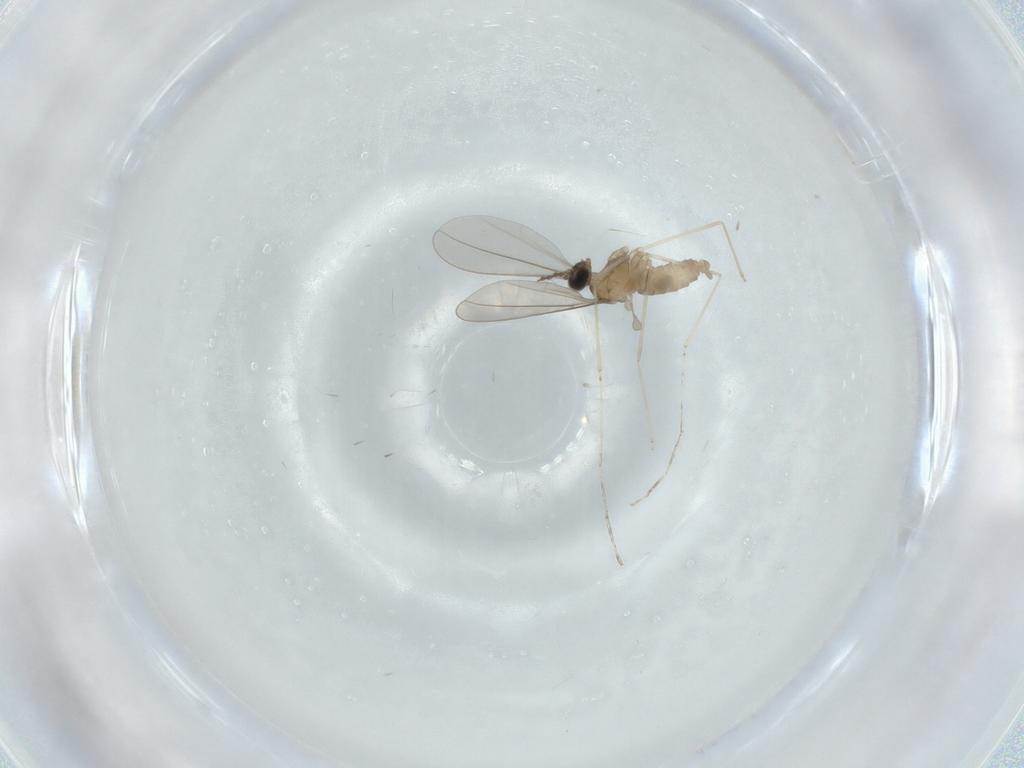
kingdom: Animalia
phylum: Arthropoda
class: Insecta
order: Diptera
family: Cecidomyiidae
